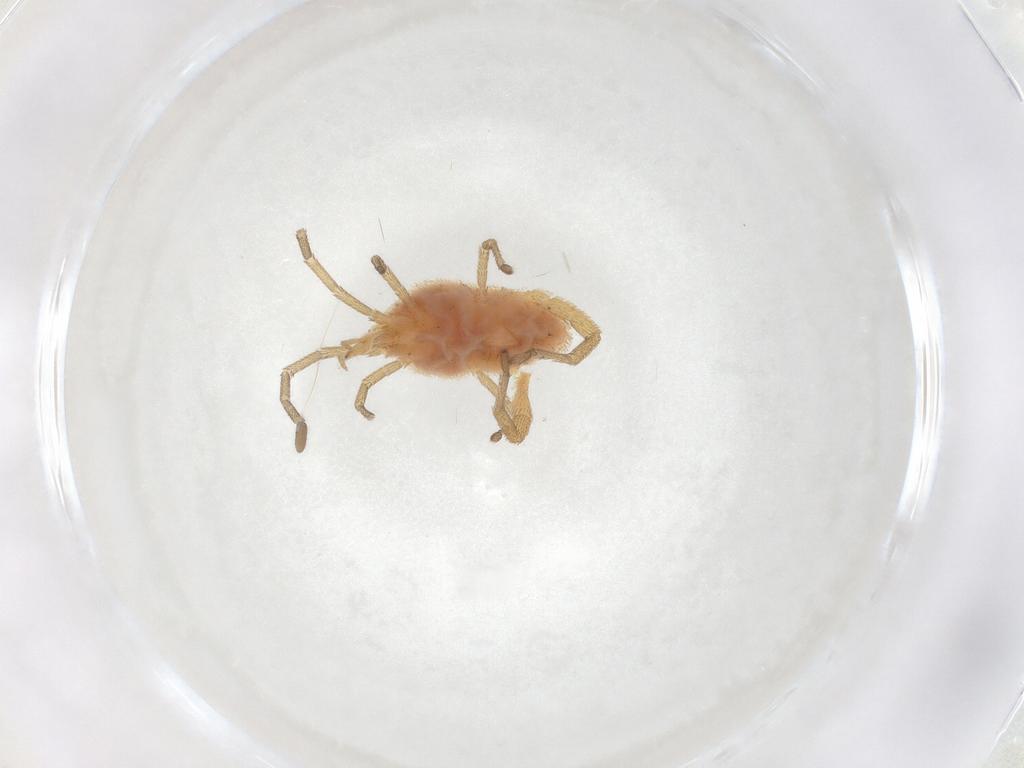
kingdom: Animalia
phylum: Arthropoda
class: Arachnida
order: Trombidiformes
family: Smarididae
